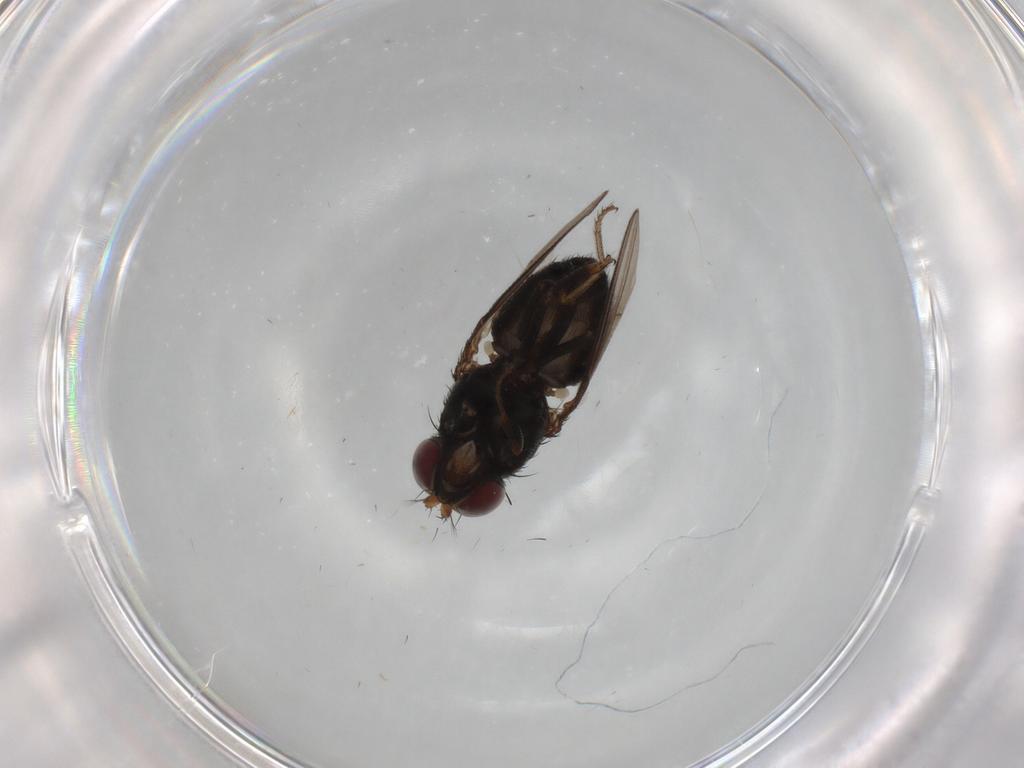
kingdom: Animalia
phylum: Arthropoda
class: Insecta
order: Diptera
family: Ephydridae
